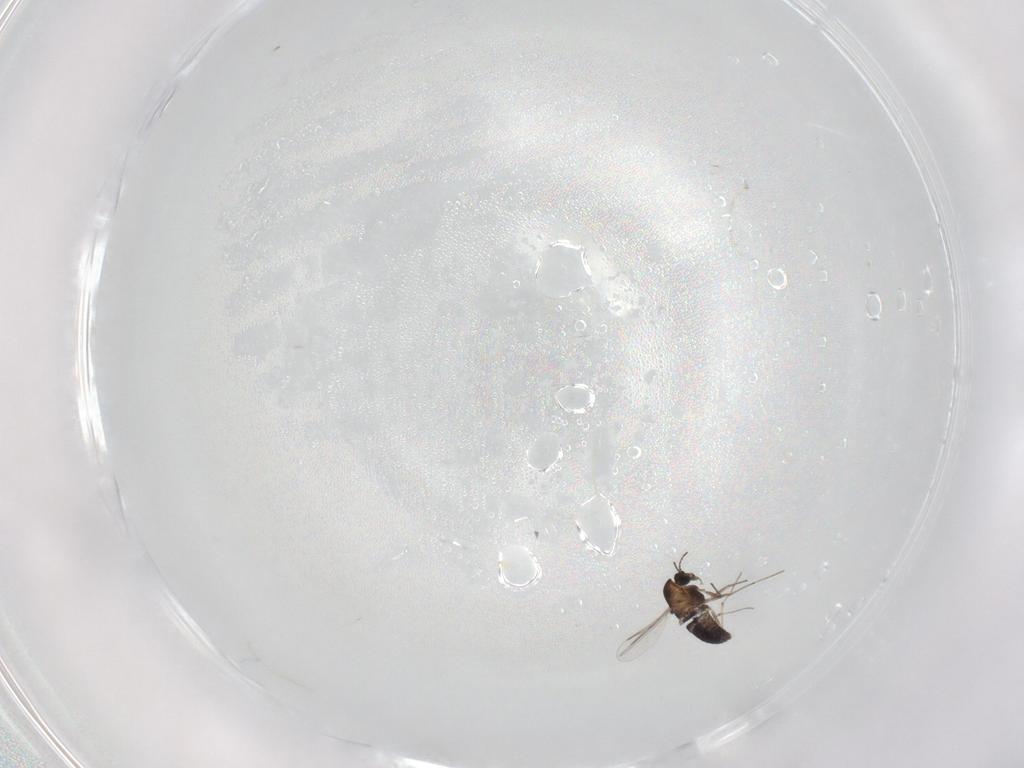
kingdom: Animalia
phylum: Arthropoda
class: Insecta
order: Diptera
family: Chironomidae
